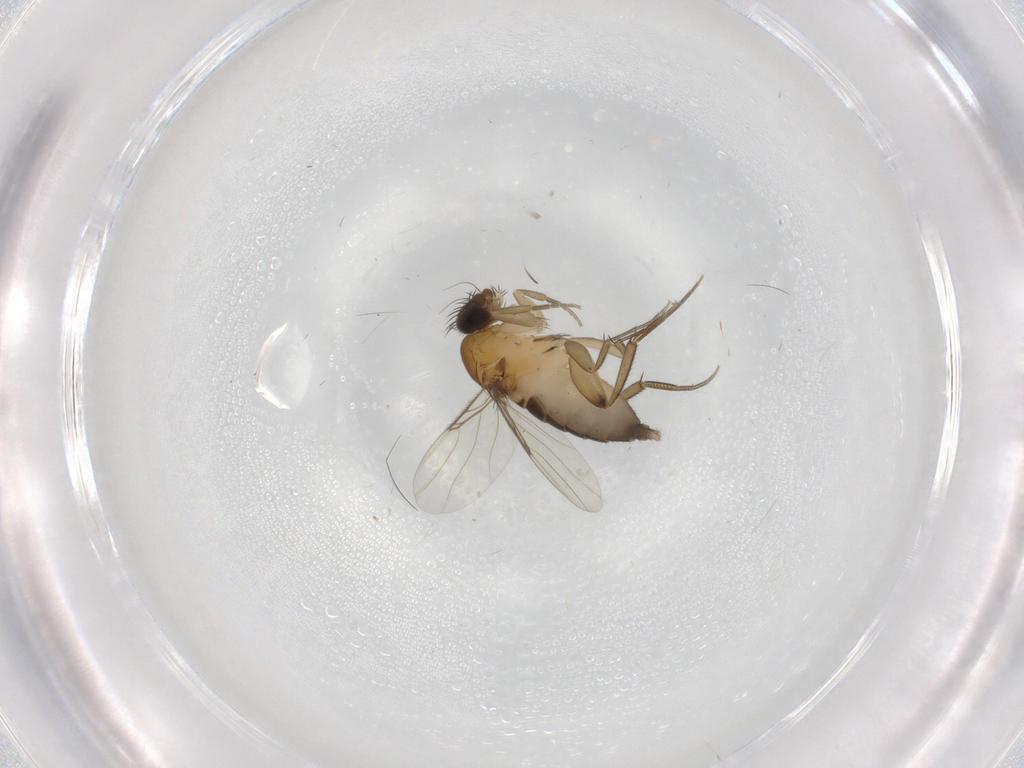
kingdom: Animalia
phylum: Arthropoda
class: Insecta
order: Diptera
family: Phoridae
